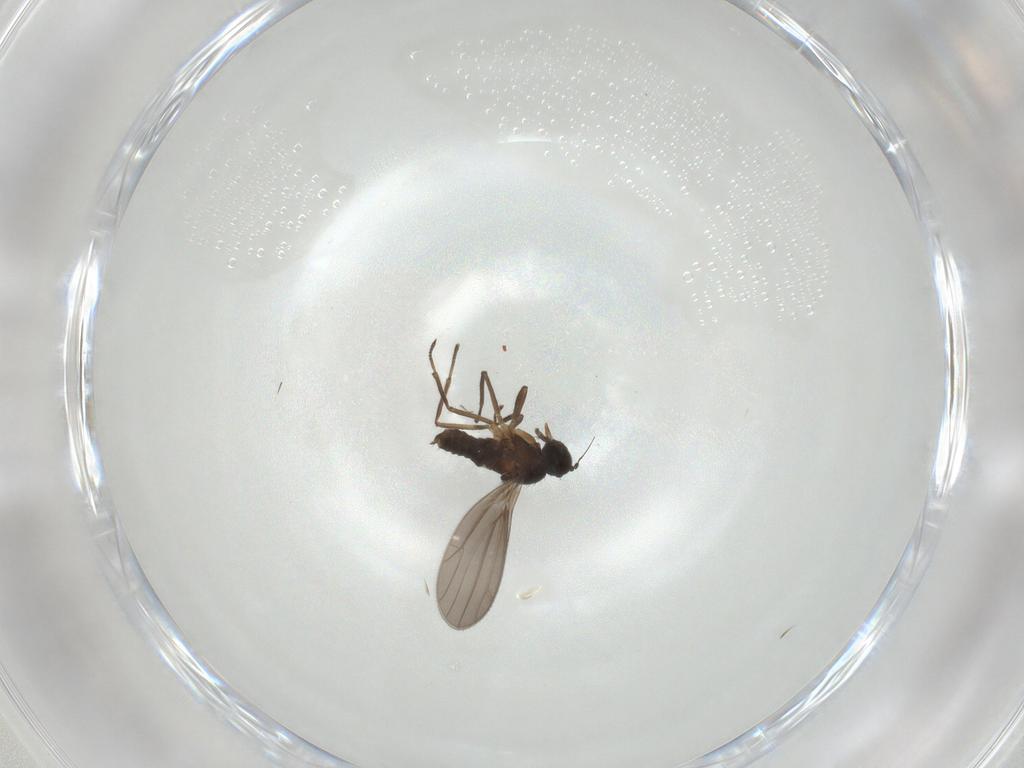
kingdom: Animalia
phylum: Arthropoda
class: Insecta
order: Diptera
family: Empididae
